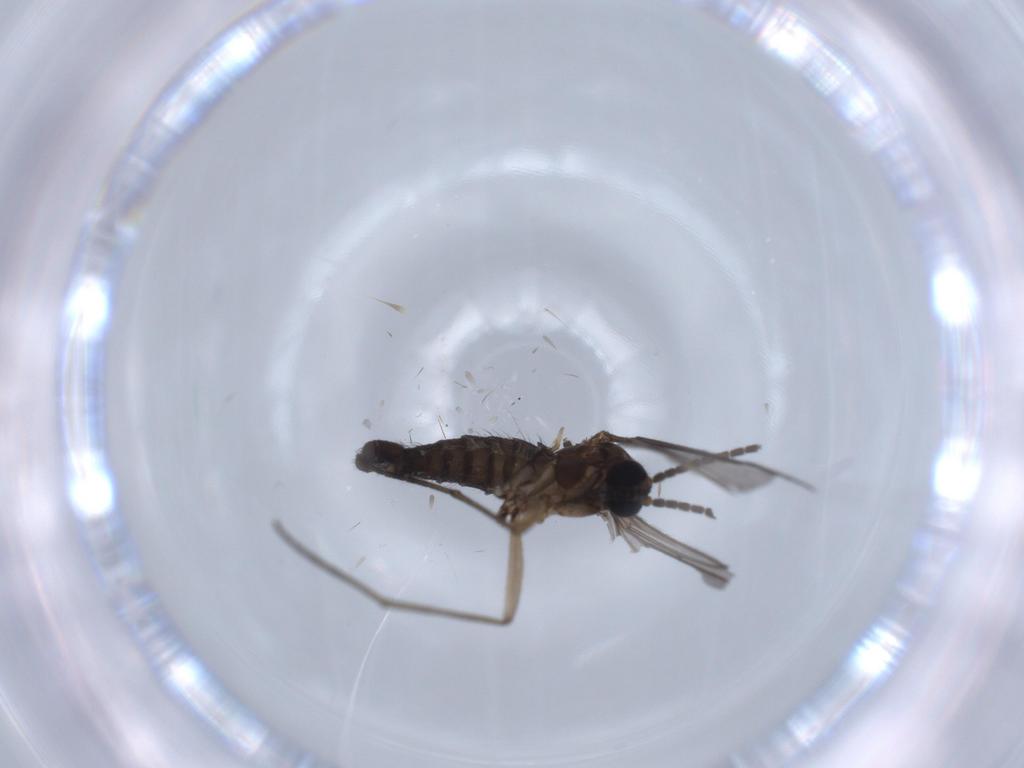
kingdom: Animalia
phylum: Arthropoda
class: Insecta
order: Diptera
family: Sciaridae
